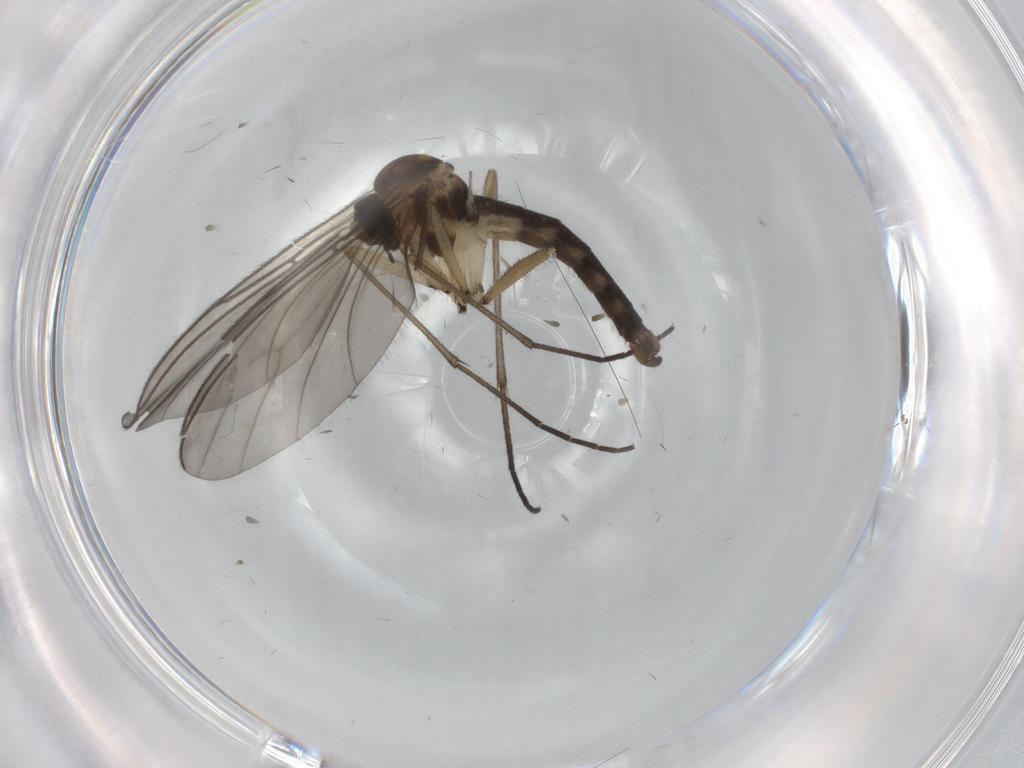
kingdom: Animalia
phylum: Arthropoda
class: Insecta
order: Diptera
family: Sciaridae
